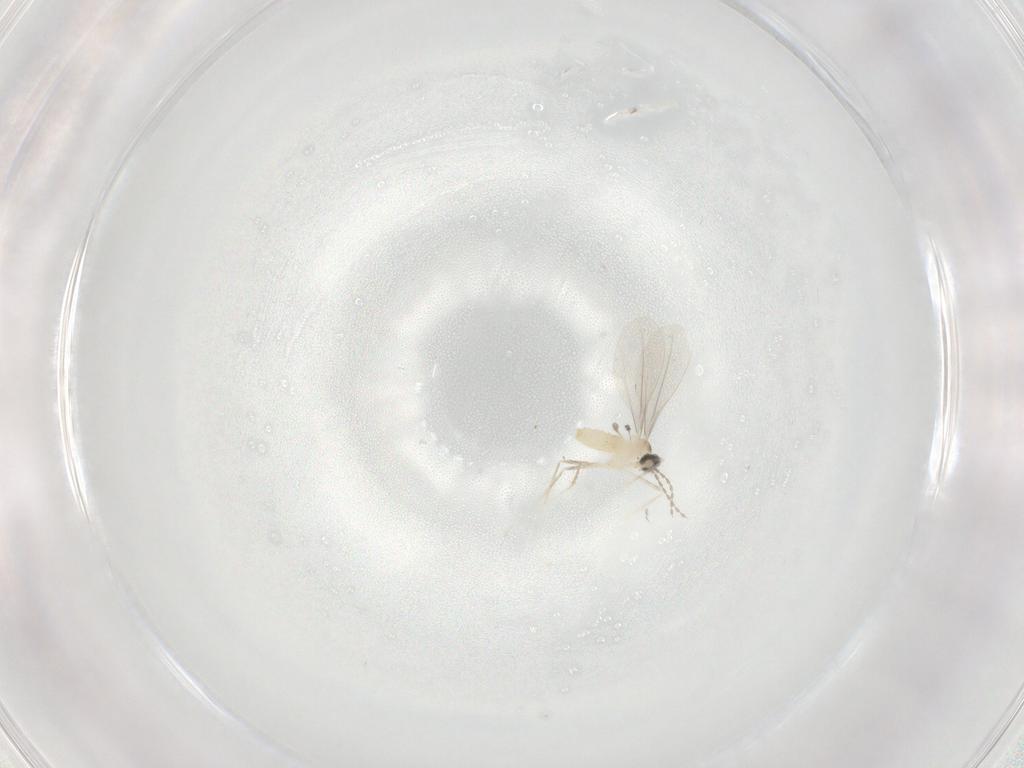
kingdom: Animalia
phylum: Arthropoda
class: Insecta
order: Diptera
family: Cecidomyiidae
